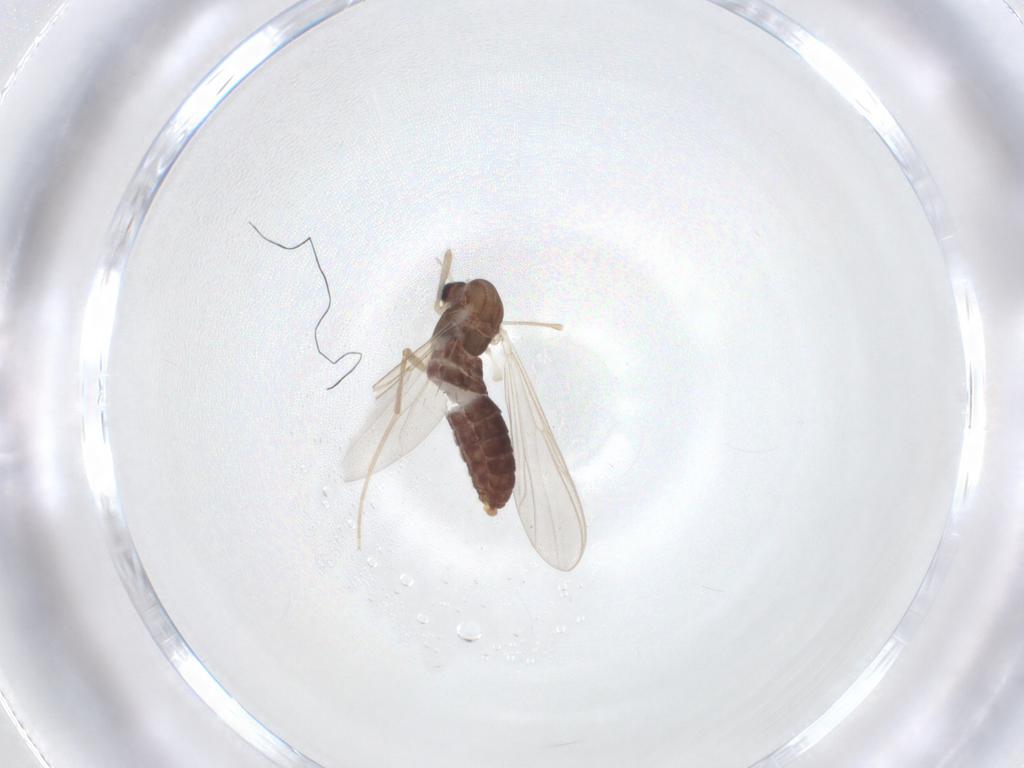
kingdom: Animalia
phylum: Arthropoda
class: Insecta
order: Diptera
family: Chironomidae
